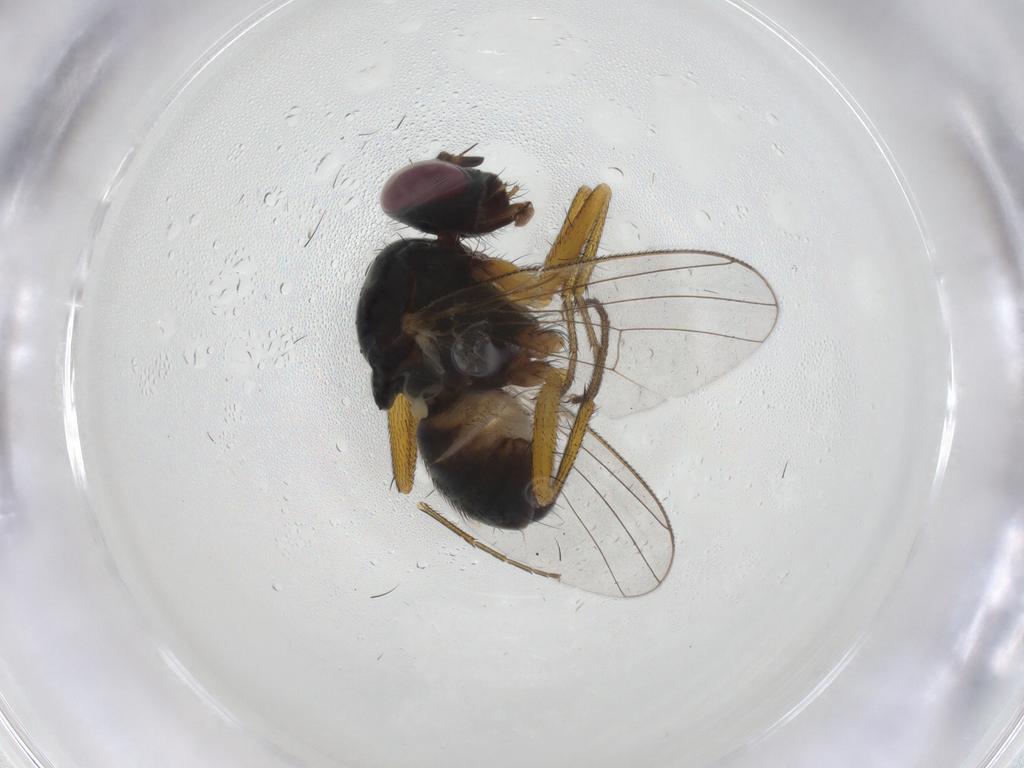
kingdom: Animalia
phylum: Arthropoda
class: Insecta
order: Diptera
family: Muscidae
